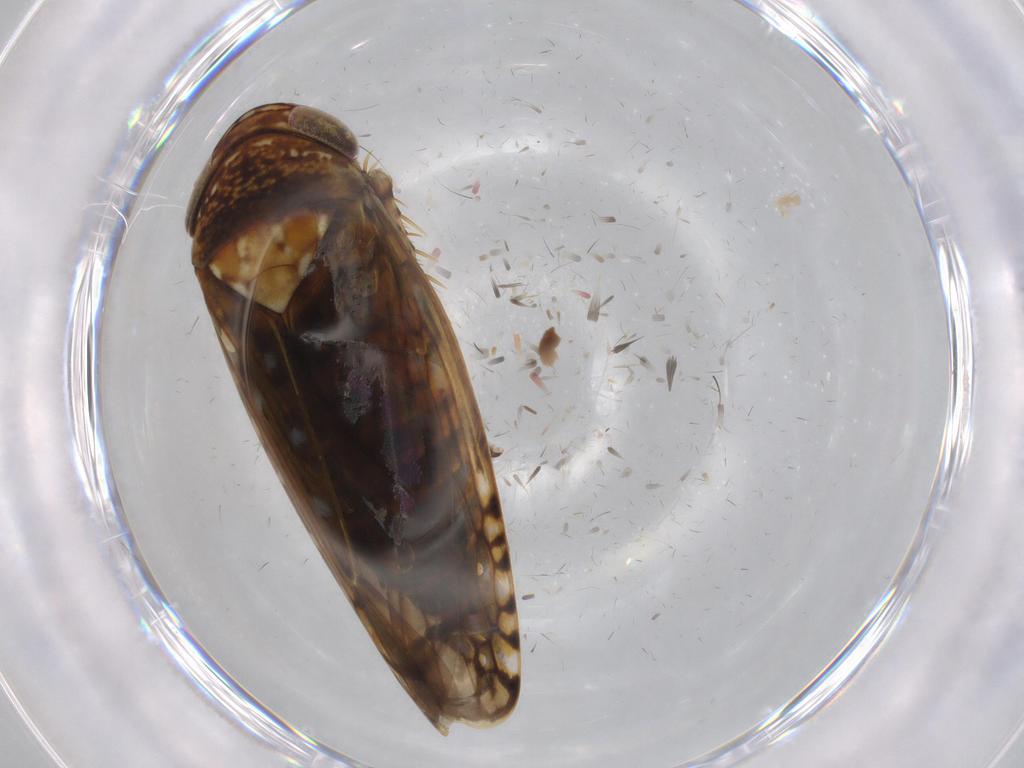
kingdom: Animalia
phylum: Arthropoda
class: Insecta
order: Hemiptera
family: Cicadellidae
